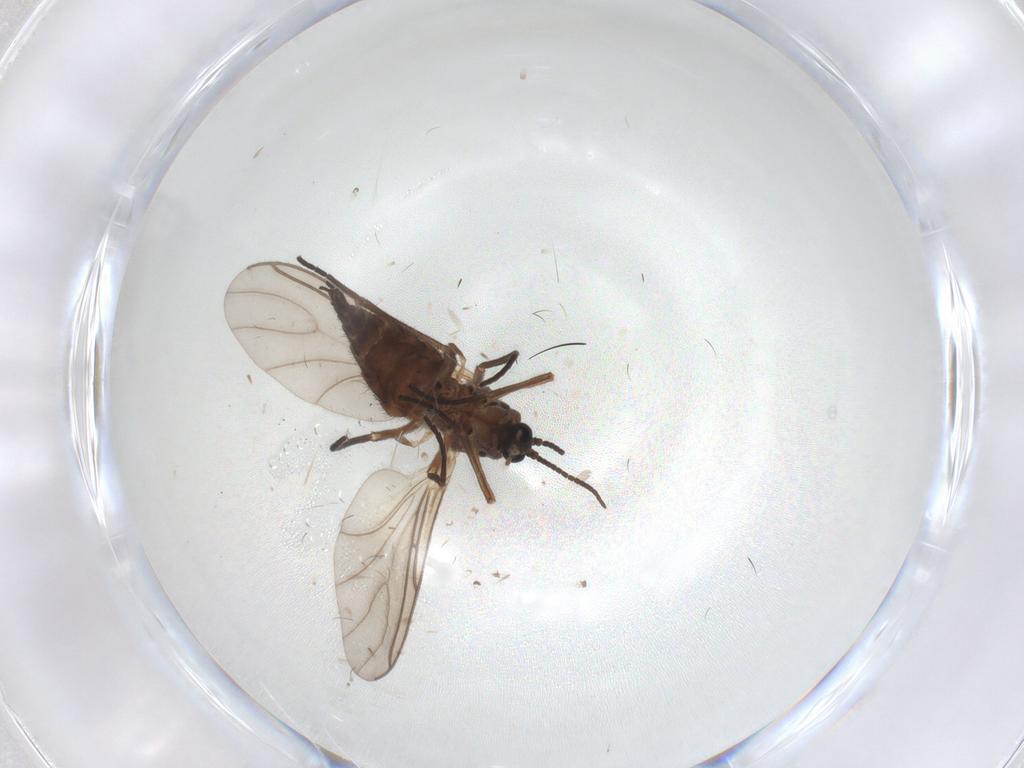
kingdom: Animalia
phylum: Arthropoda
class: Insecta
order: Diptera
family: Sciaridae
